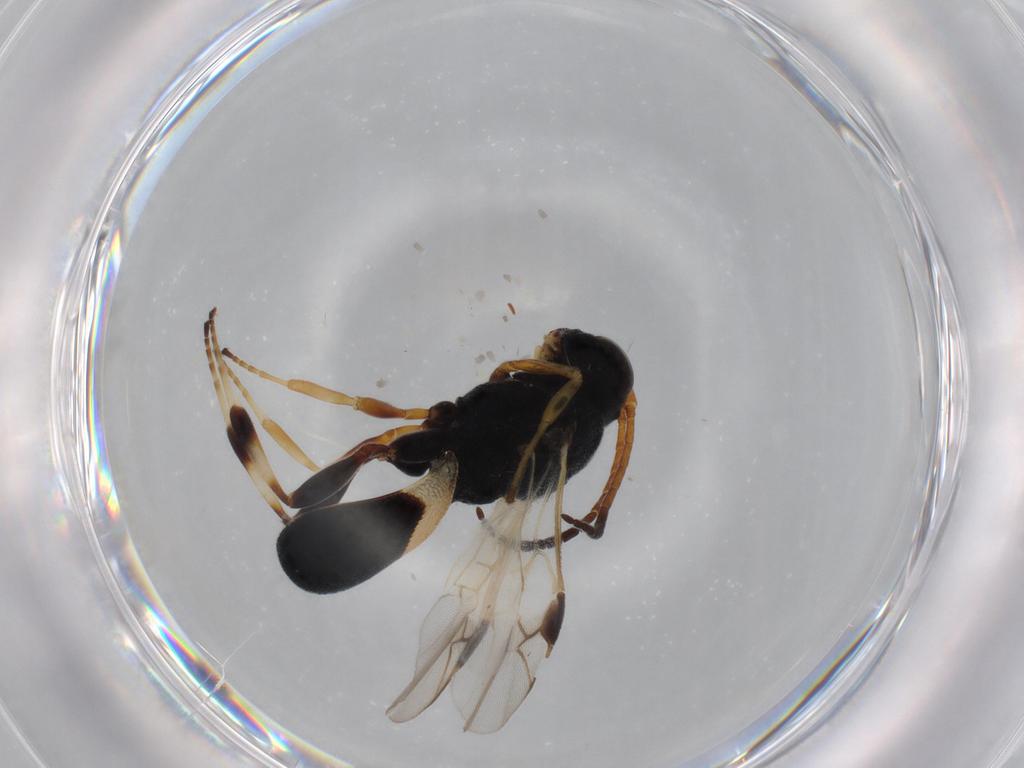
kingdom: Animalia
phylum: Arthropoda
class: Insecta
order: Hymenoptera
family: Braconidae
